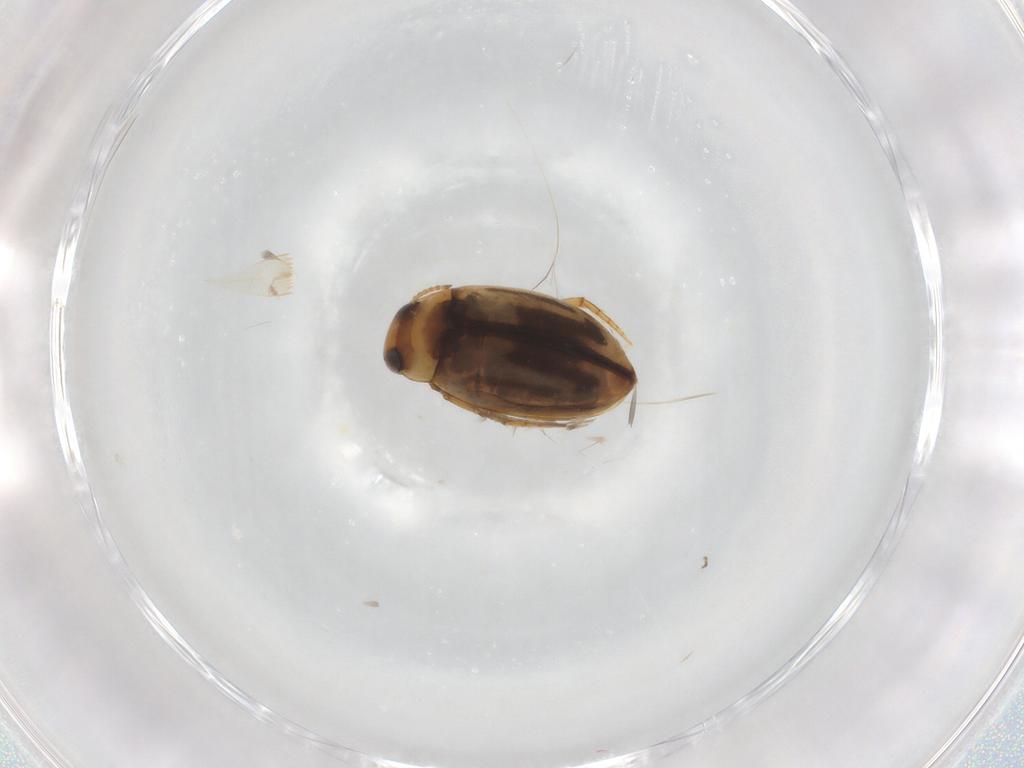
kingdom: Animalia
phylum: Arthropoda
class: Insecta
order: Coleoptera
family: Dytiscidae
